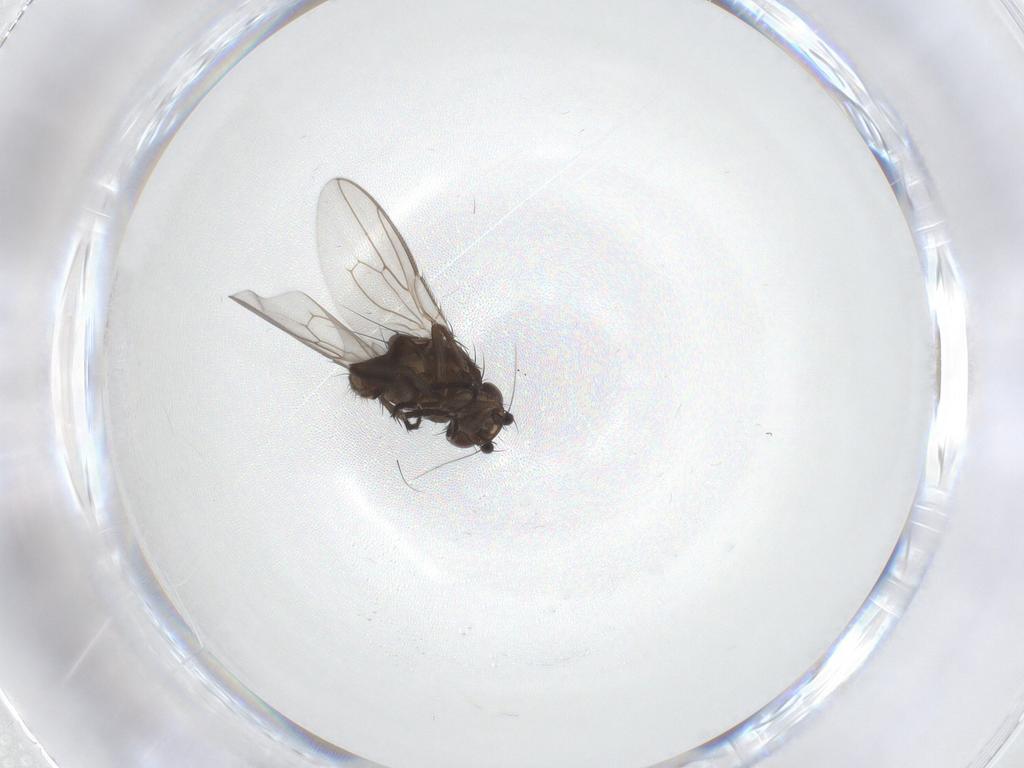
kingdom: Animalia
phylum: Arthropoda
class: Insecta
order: Diptera
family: Sphaeroceridae
